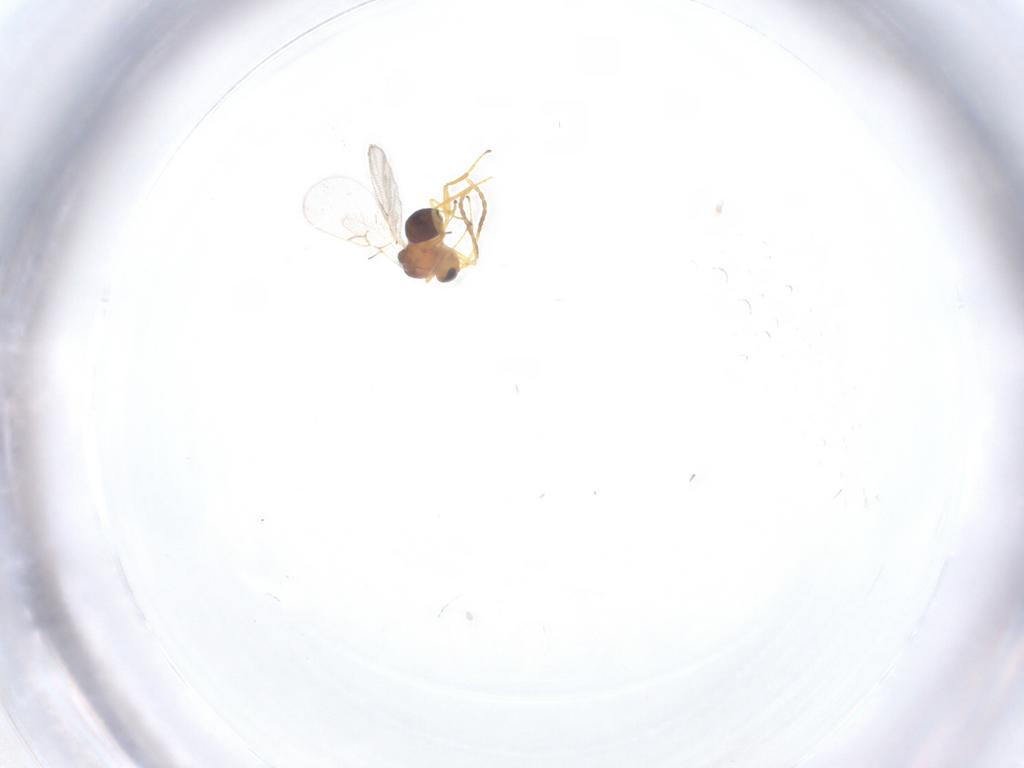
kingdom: Animalia
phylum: Arthropoda
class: Insecta
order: Hymenoptera
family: Figitidae
